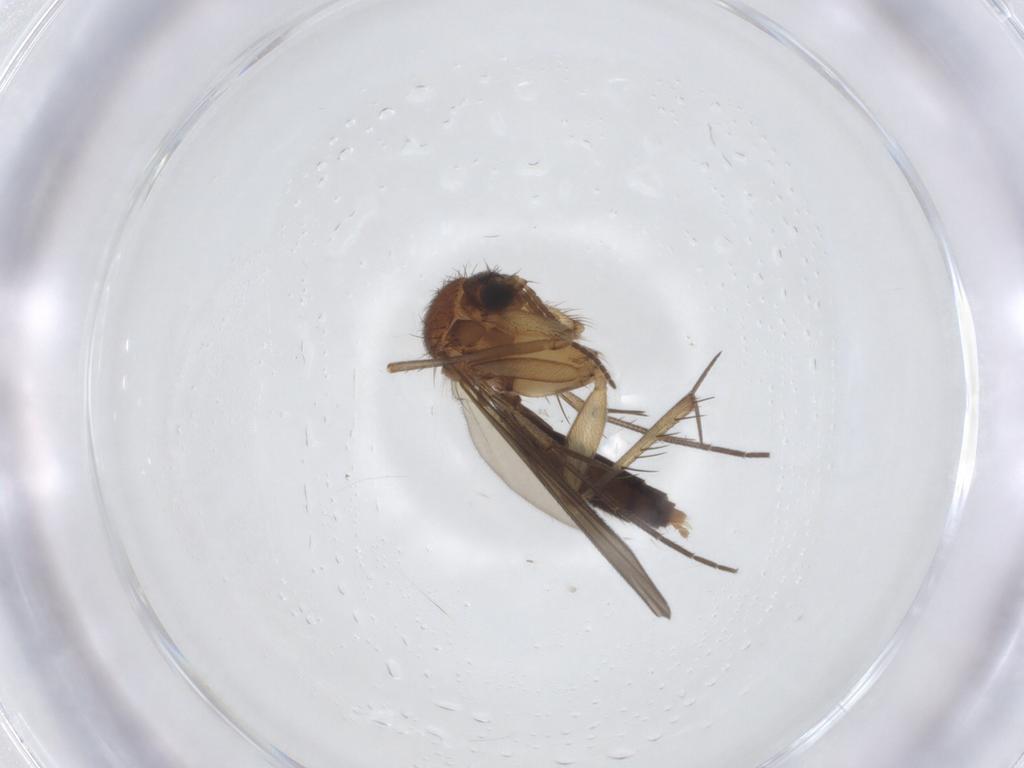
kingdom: Animalia
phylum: Arthropoda
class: Insecta
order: Diptera
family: Mycetophilidae
